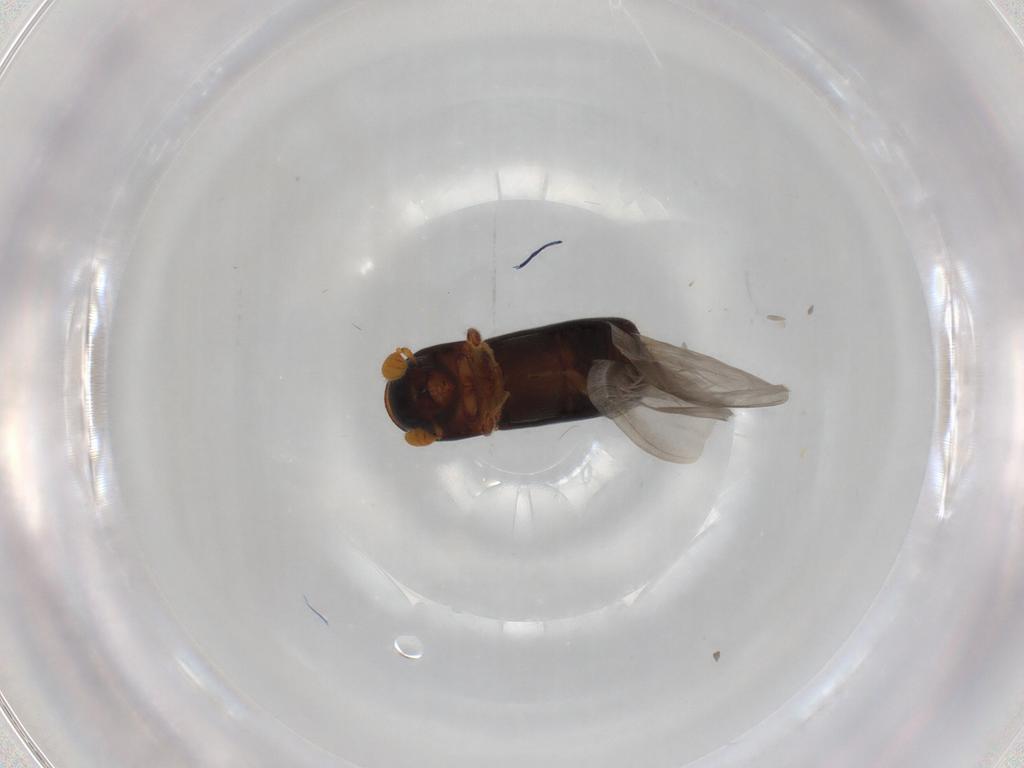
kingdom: Animalia
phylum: Arthropoda
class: Insecta
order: Coleoptera
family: Curculionidae
